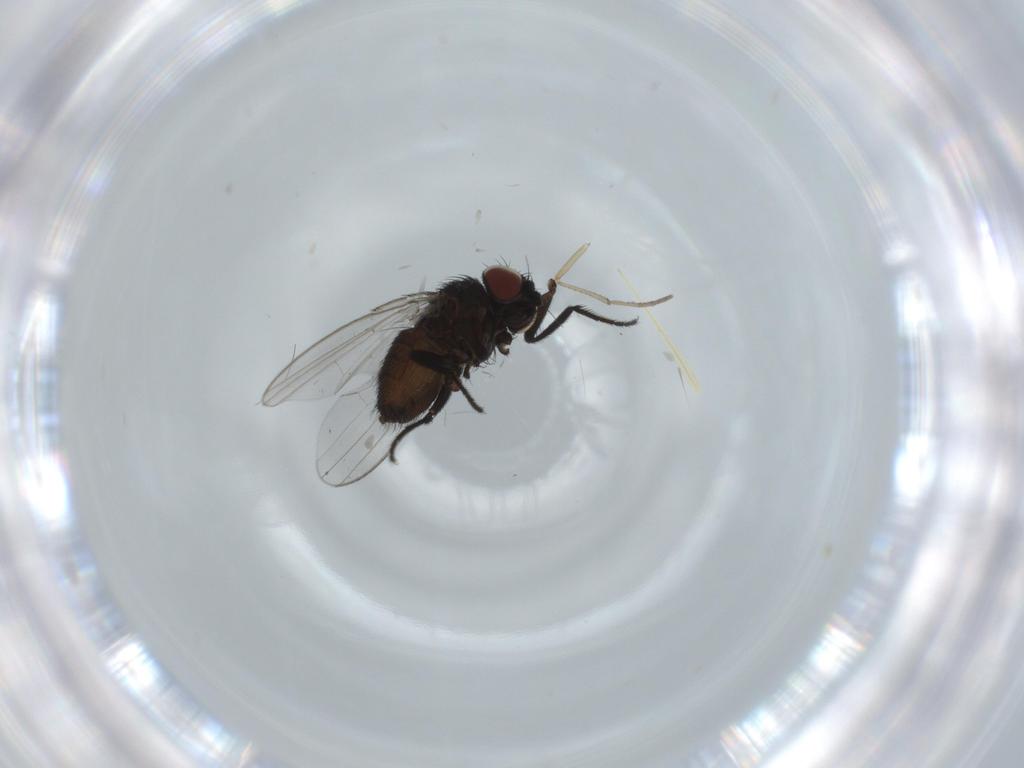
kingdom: Animalia
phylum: Arthropoda
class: Insecta
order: Diptera
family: Milichiidae
